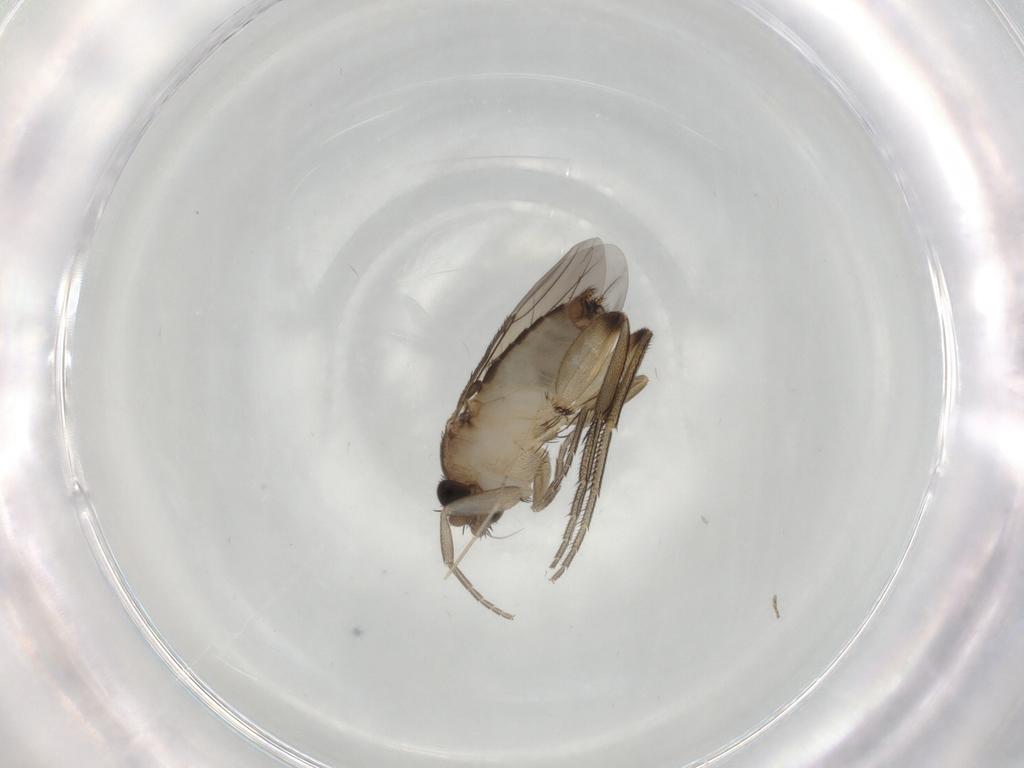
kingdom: Animalia
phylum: Arthropoda
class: Insecta
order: Diptera
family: Phoridae
